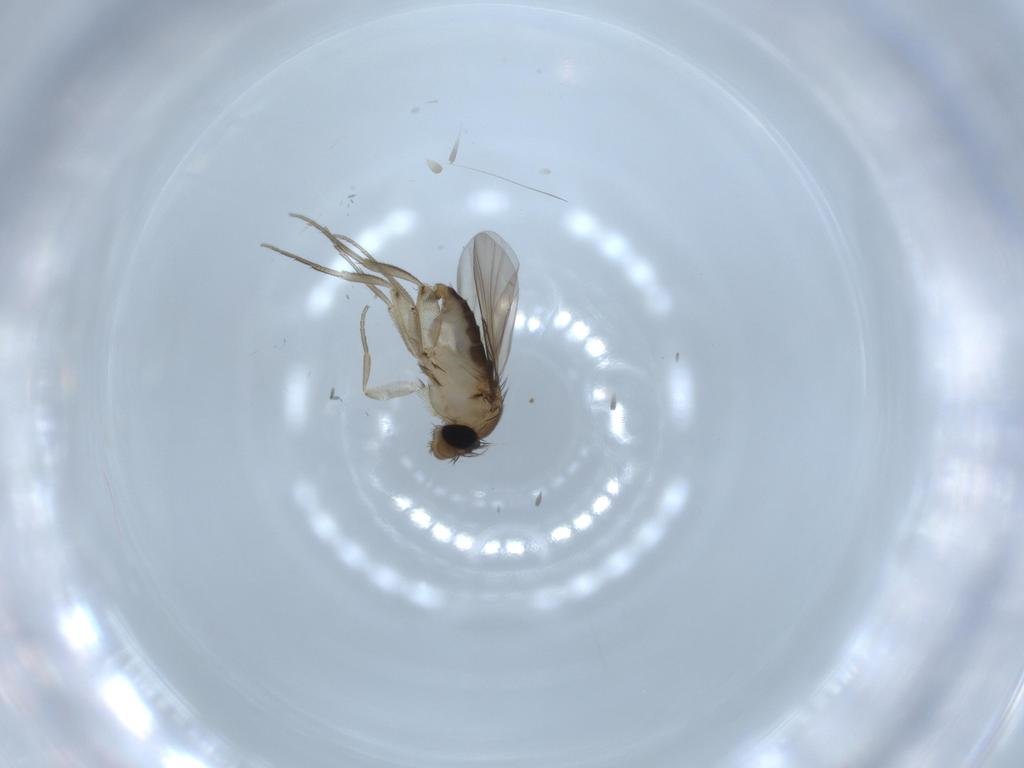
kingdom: Animalia
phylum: Arthropoda
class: Insecta
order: Diptera
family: Phoridae
